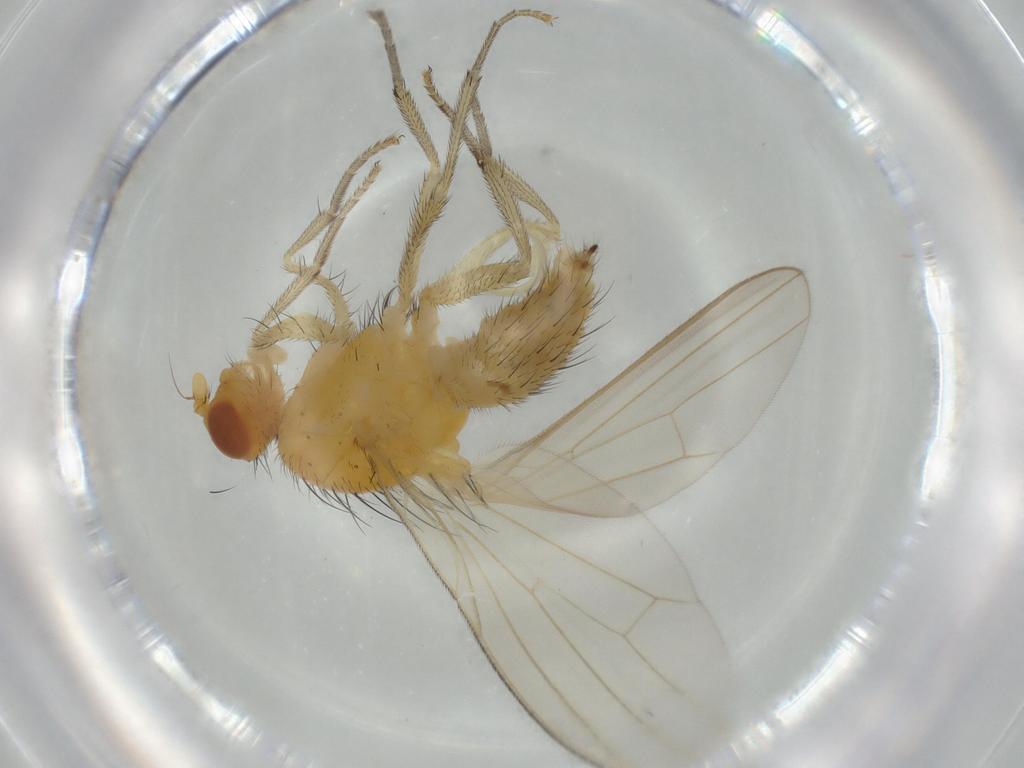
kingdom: Animalia
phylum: Arthropoda
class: Insecta
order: Diptera
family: Lauxaniidae
